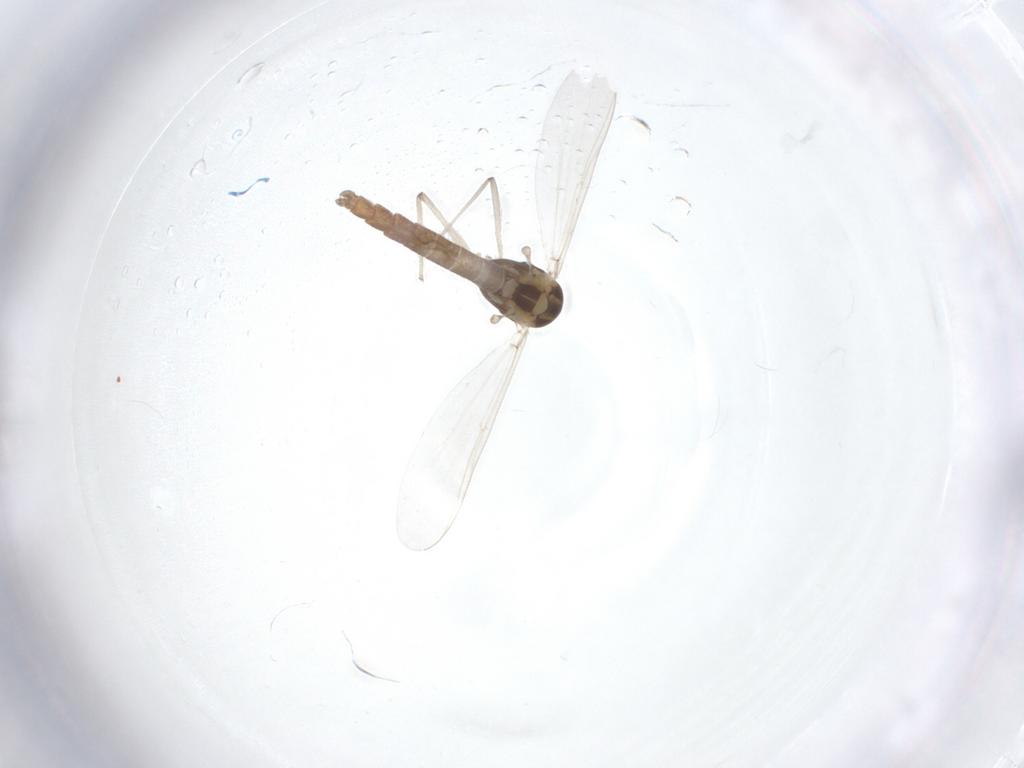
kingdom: Animalia
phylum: Arthropoda
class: Insecta
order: Diptera
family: Chironomidae
